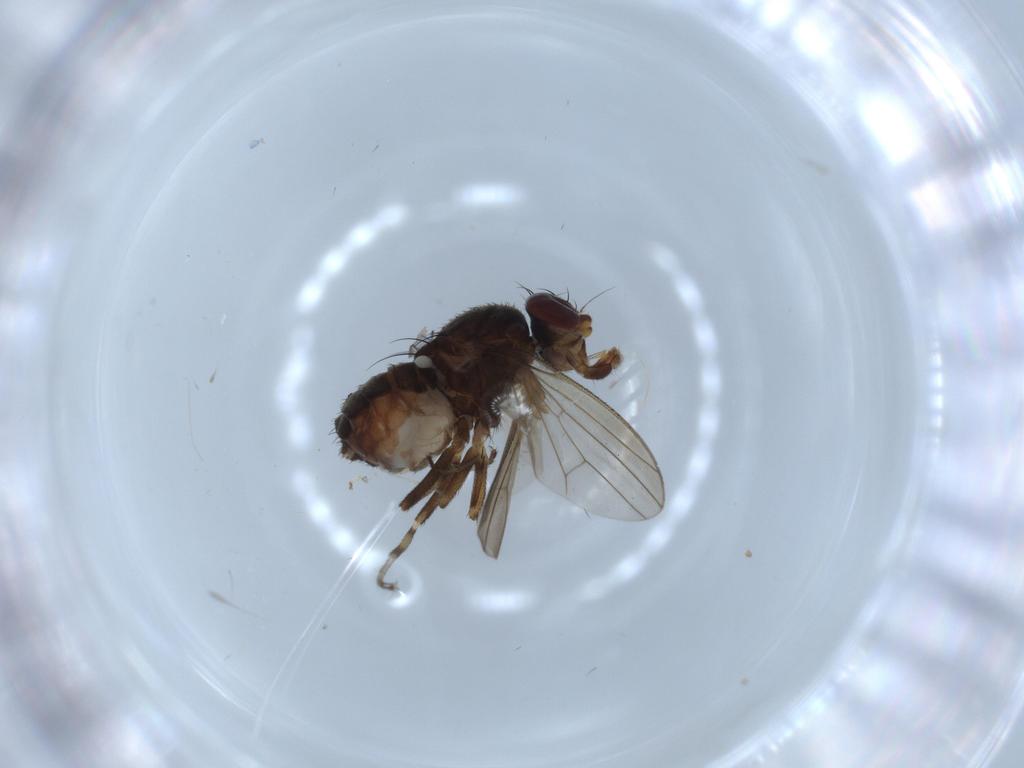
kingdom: Animalia
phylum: Arthropoda
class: Insecta
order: Diptera
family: Heleomyzidae
